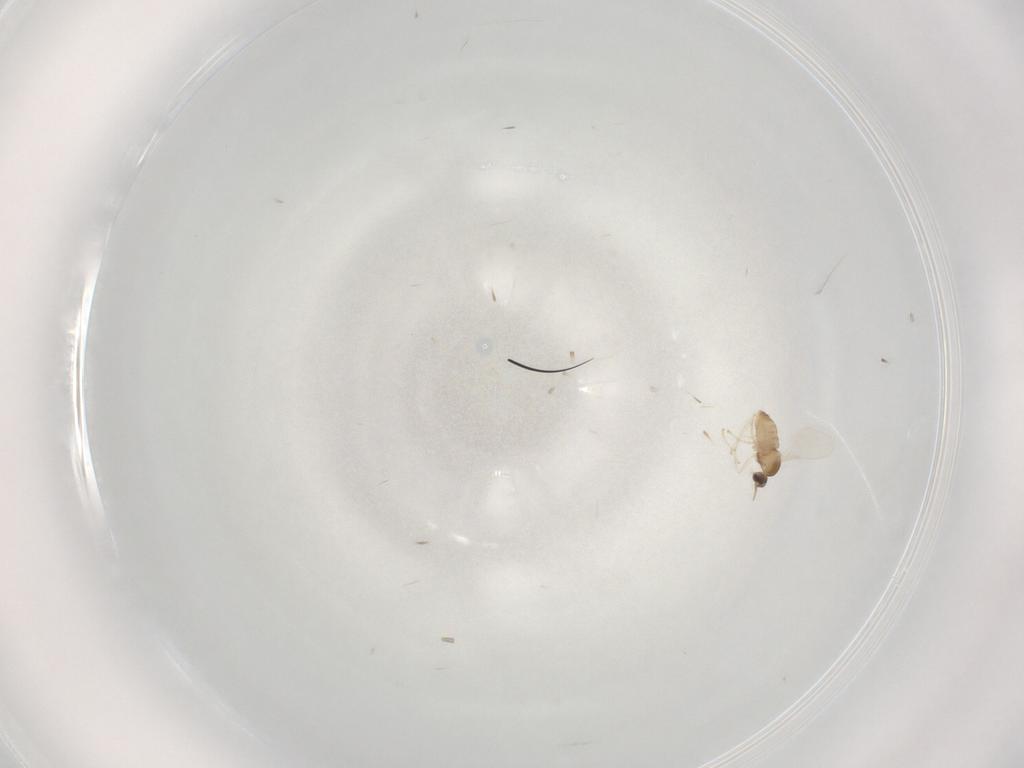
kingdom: Animalia
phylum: Arthropoda
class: Insecta
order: Diptera
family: Cecidomyiidae
